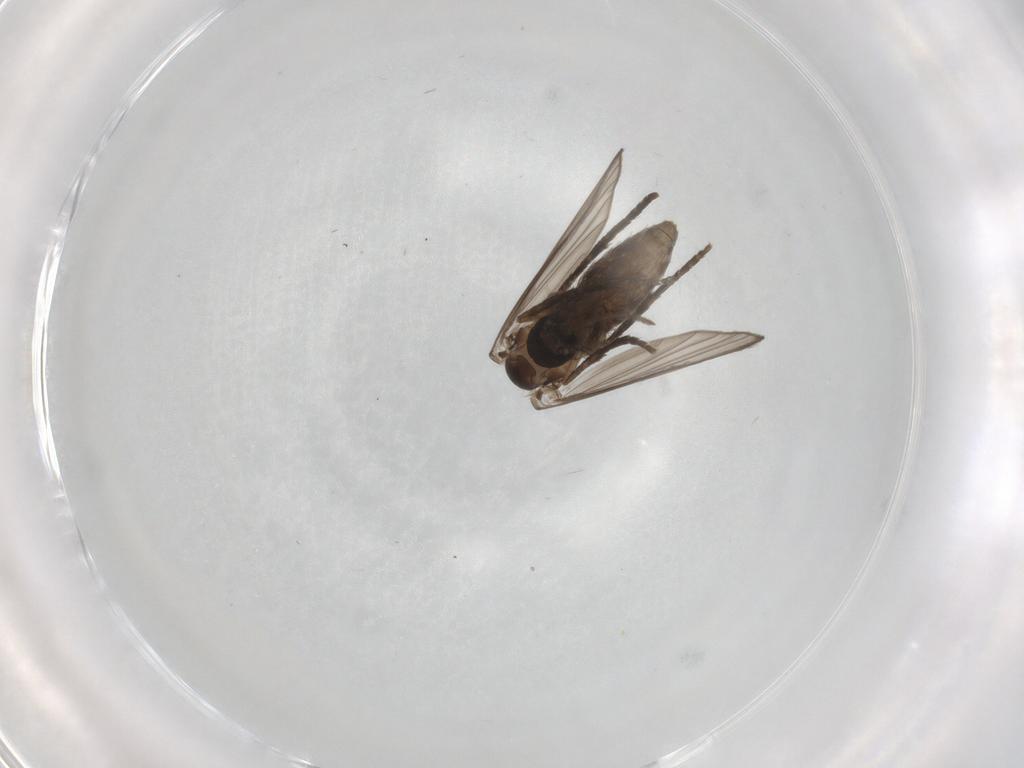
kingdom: Animalia
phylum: Arthropoda
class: Insecta
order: Diptera
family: Psychodidae
